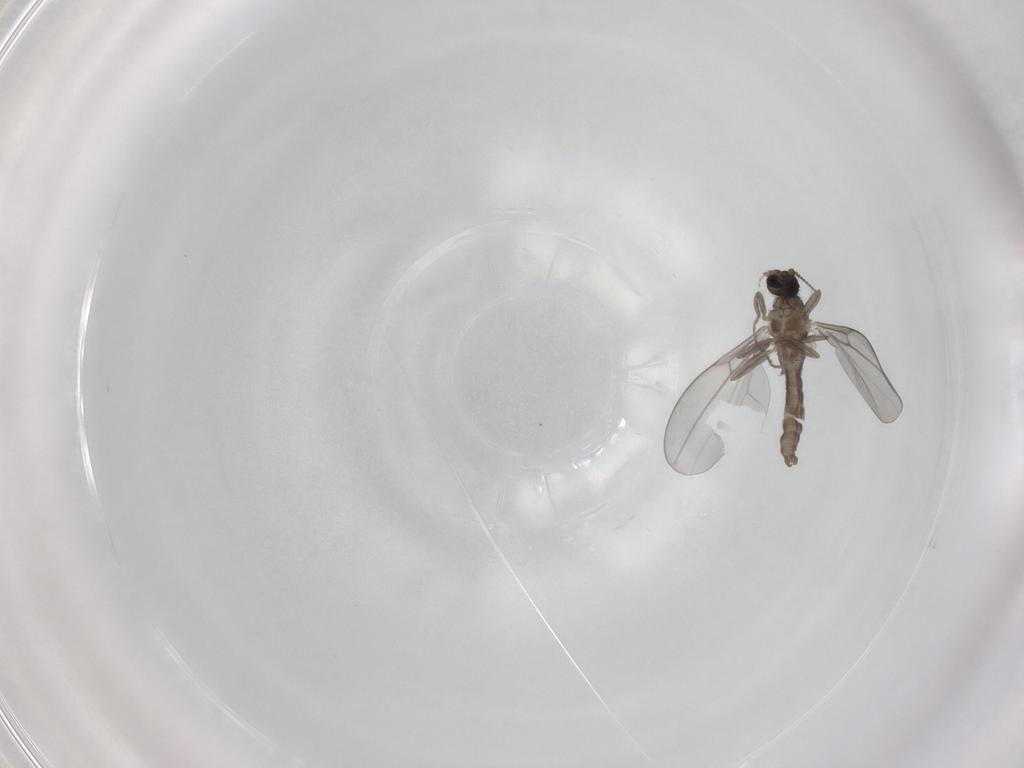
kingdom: Animalia
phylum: Arthropoda
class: Insecta
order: Diptera
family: Cecidomyiidae
